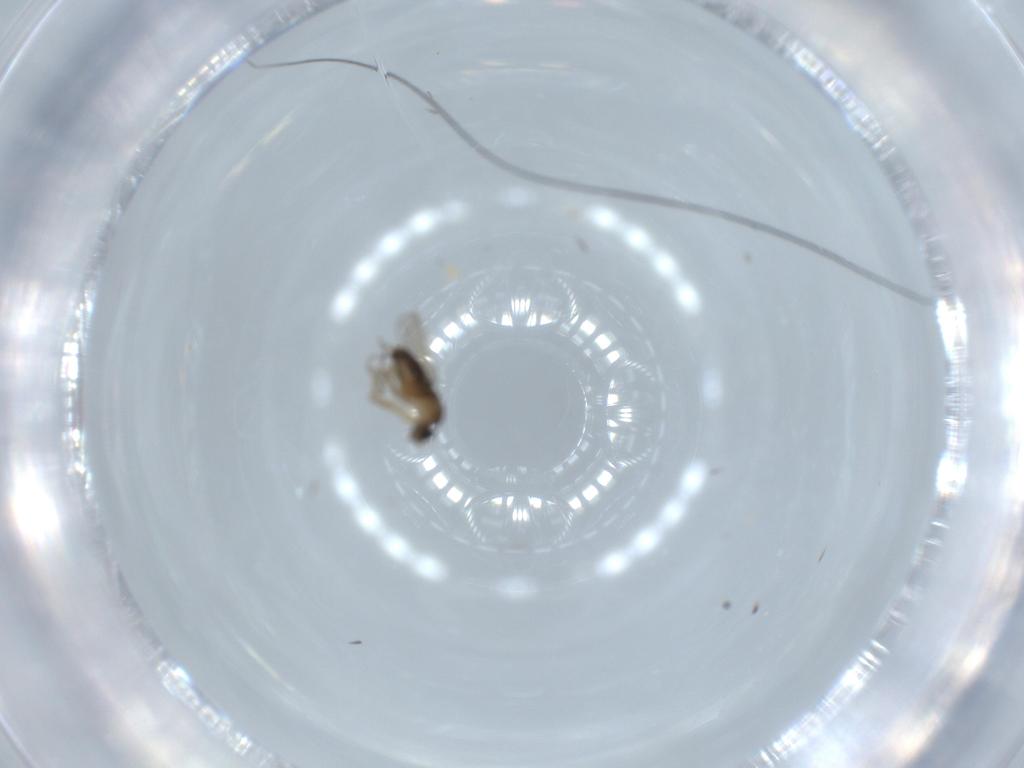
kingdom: Animalia
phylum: Arthropoda
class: Insecta
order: Diptera
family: Phoridae
